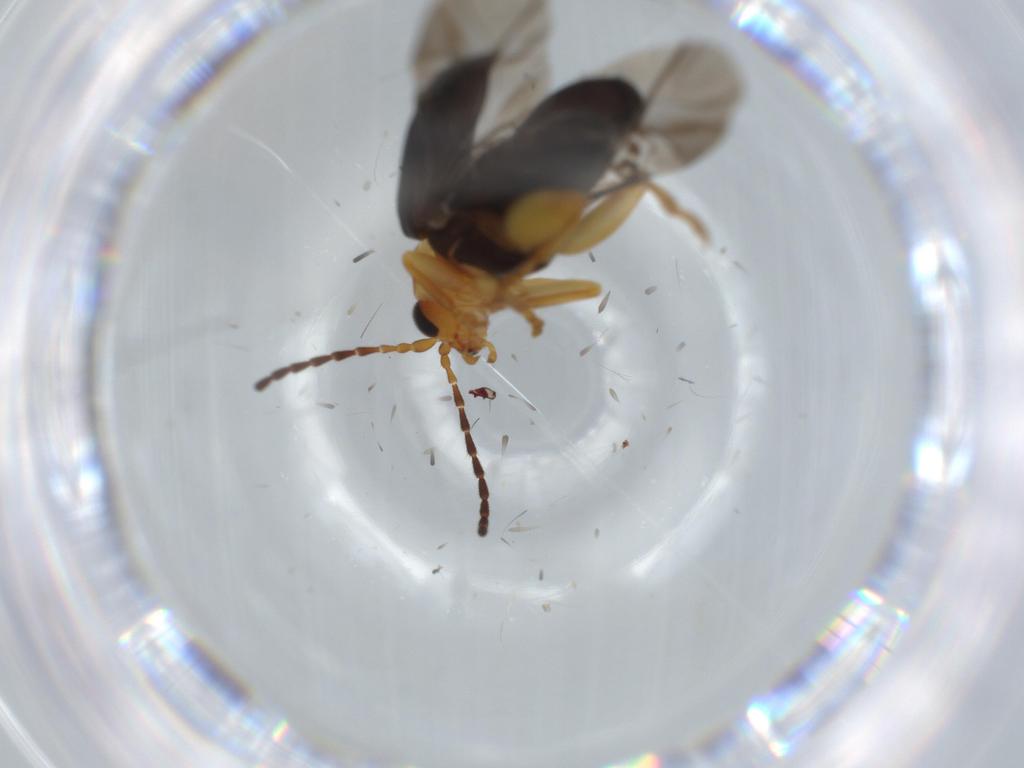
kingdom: Animalia
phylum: Arthropoda
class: Insecta
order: Coleoptera
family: Chrysomelidae
